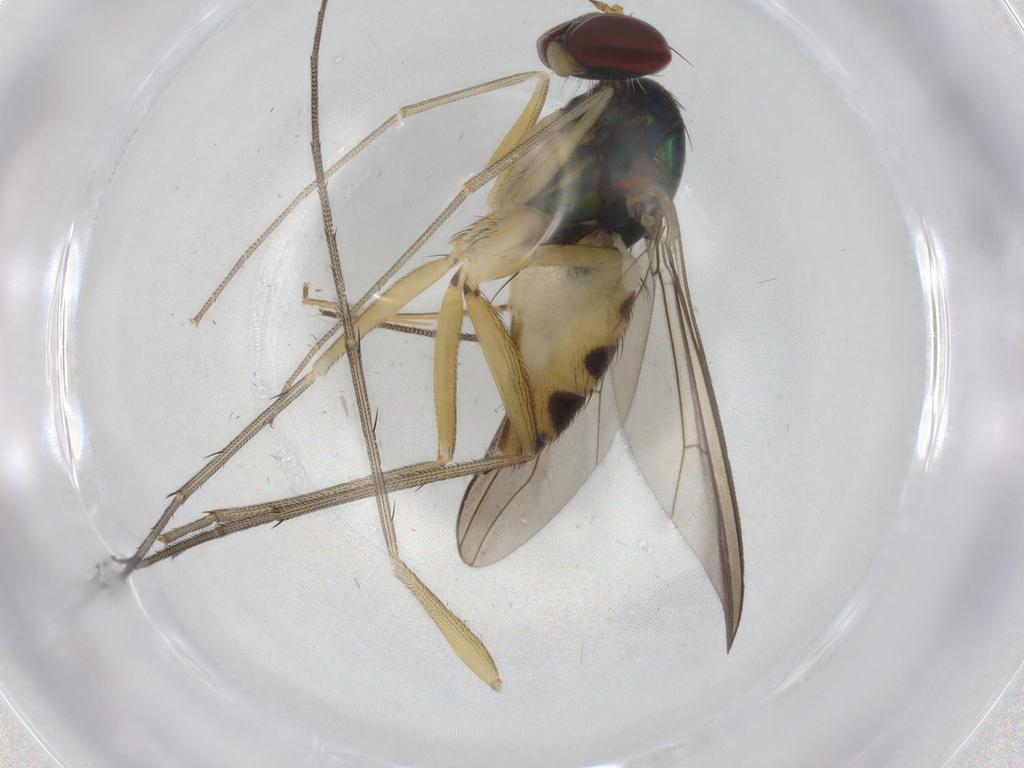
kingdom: Animalia
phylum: Arthropoda
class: Insecta
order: Diptera
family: Dolichopodidae
